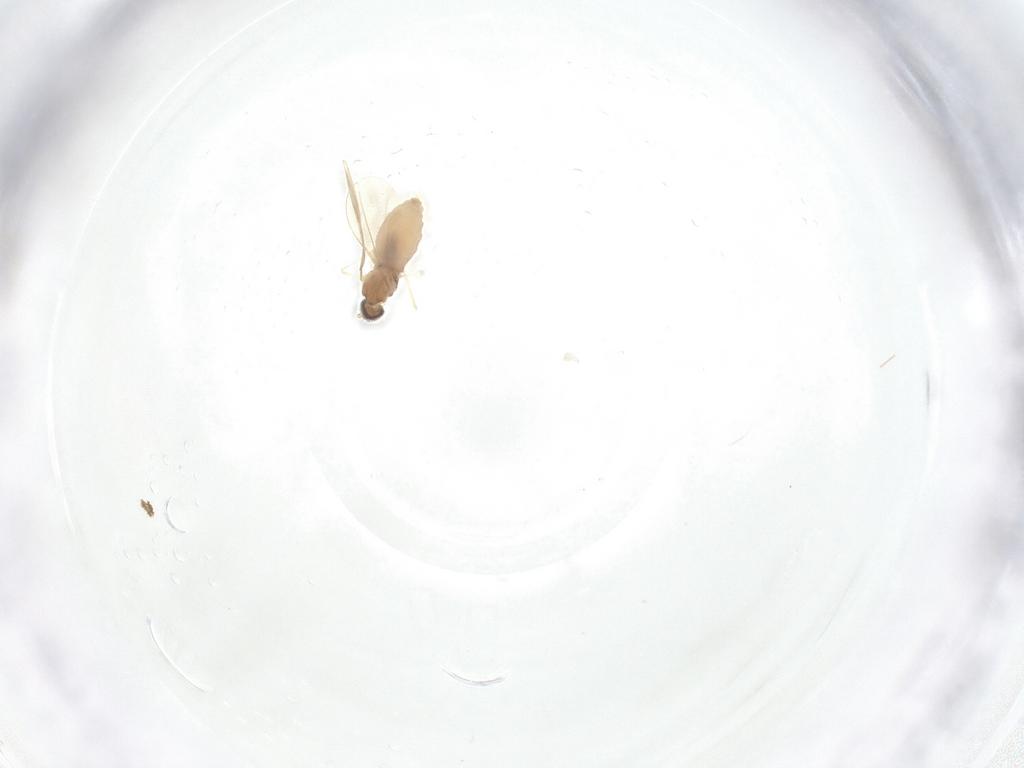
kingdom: Animalia
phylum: Arthropoda
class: Insecta
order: Diptera
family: Cecidomyiidae
